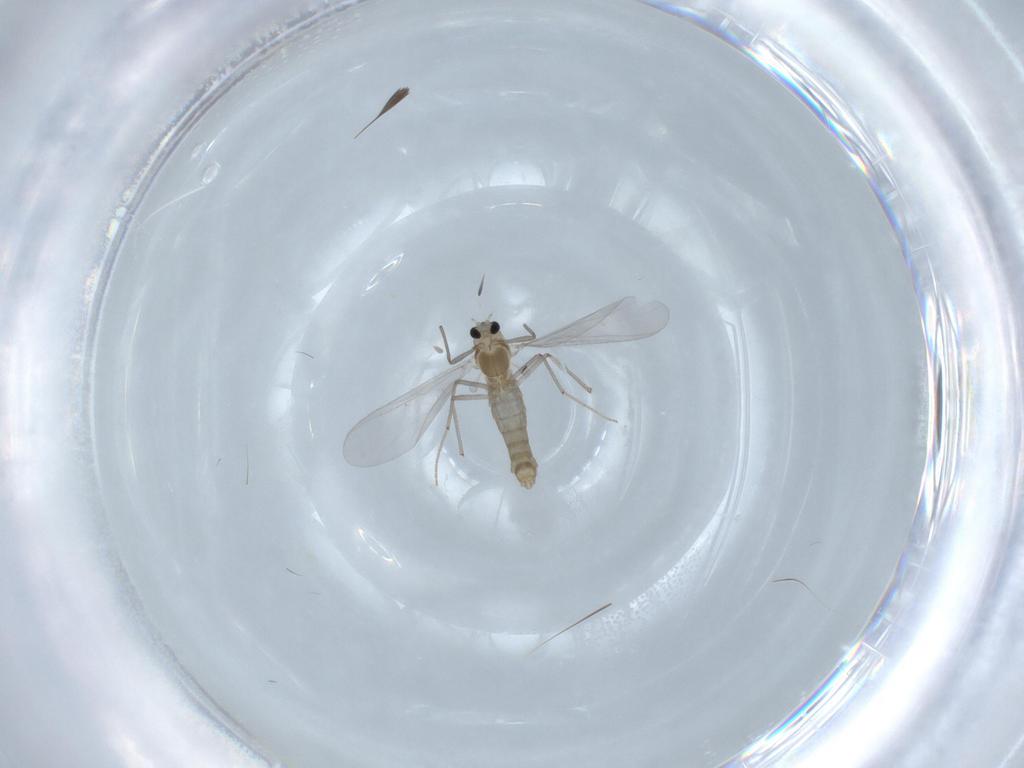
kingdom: Animalia
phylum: Arthropoda
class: Insecta
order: Diptera
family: Chironomidae
